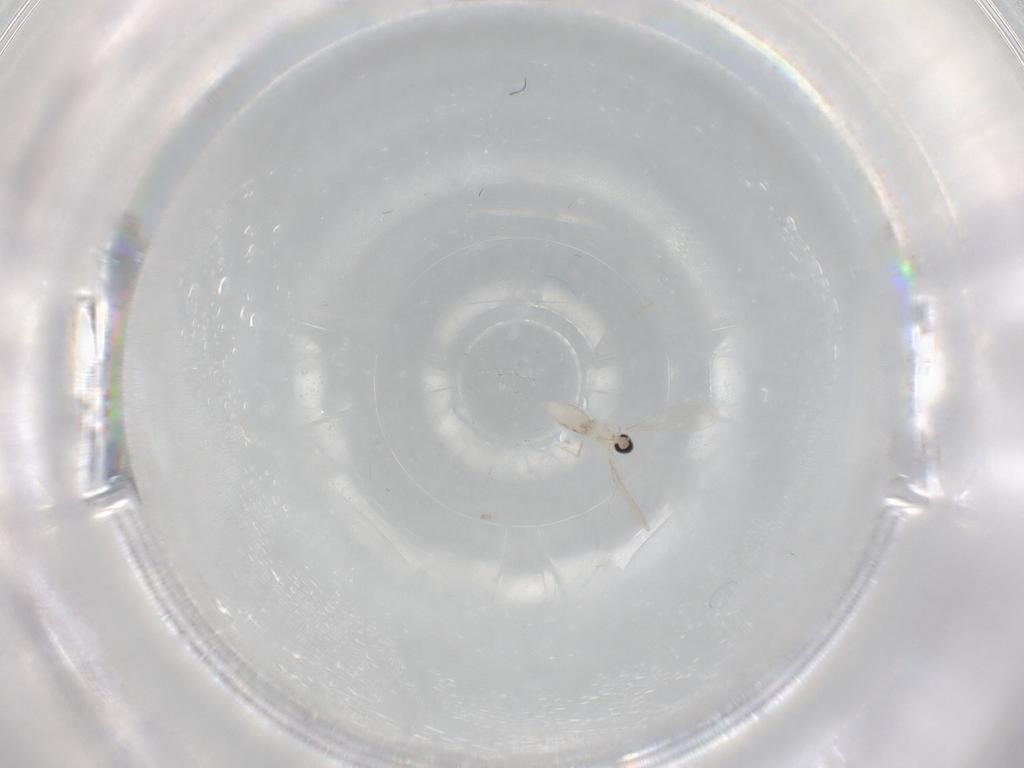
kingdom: Animalia
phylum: Arthropoda
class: Insecta
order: Diptera
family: Cecidomyiidae
